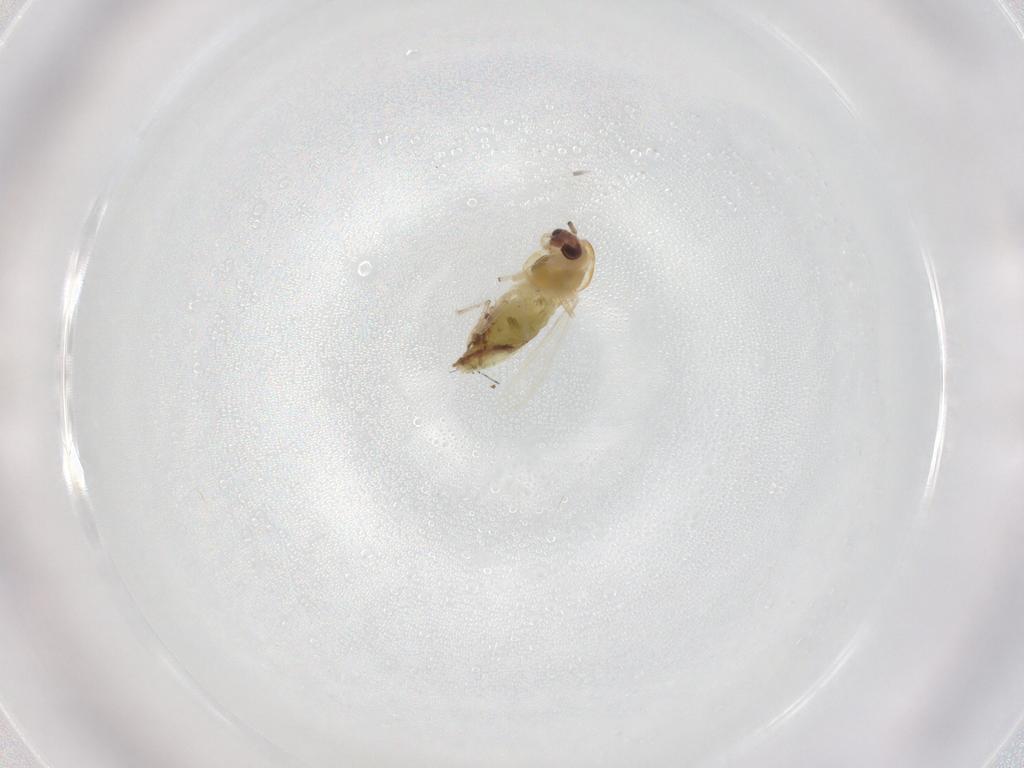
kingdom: Animalia
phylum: Arthropoda
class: Insecta
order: Diptera
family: Chironomidae
